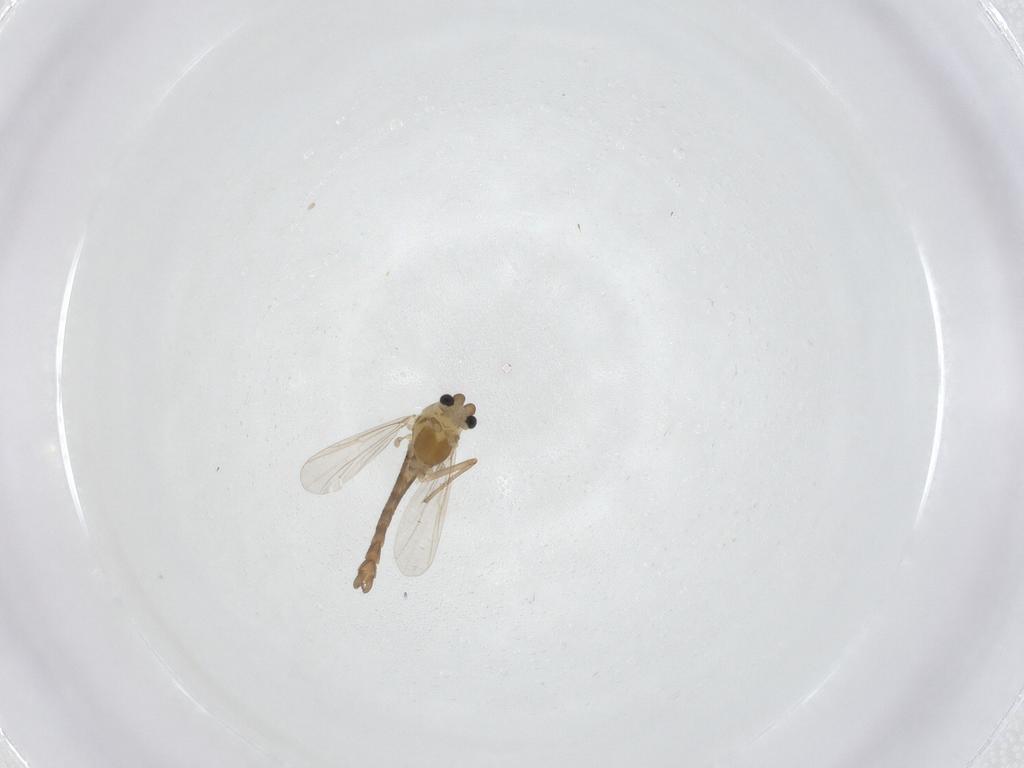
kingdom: Animalia
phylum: Arthropoda
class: Insecta
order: Diptera
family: Chironomidae
